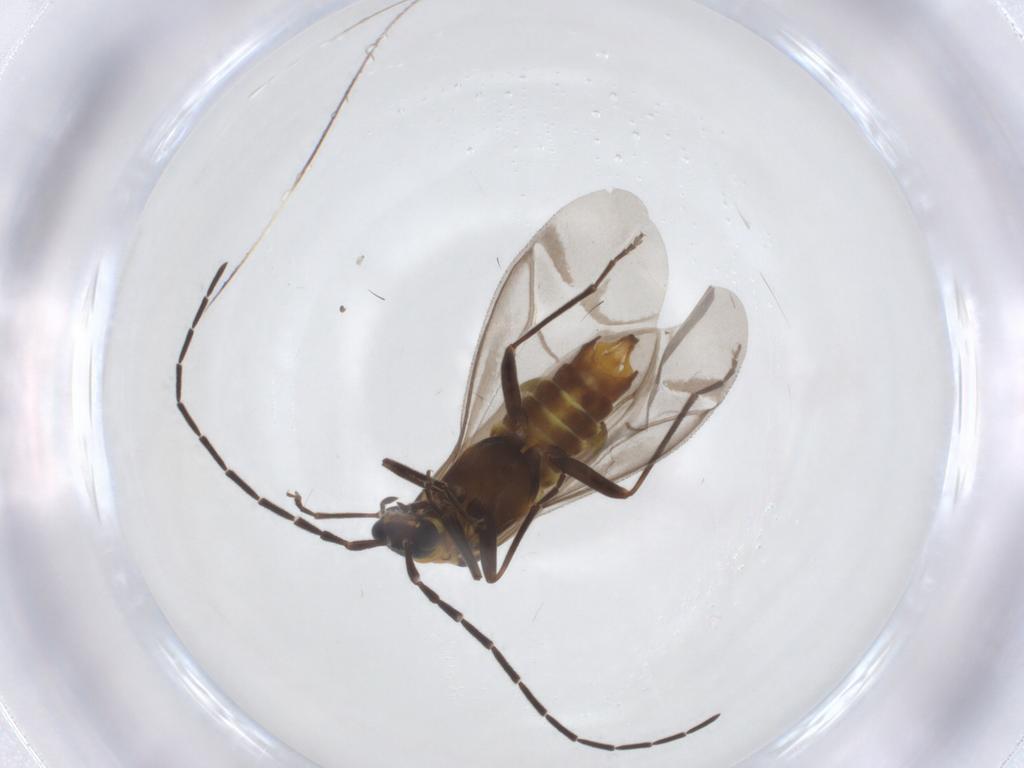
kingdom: Animalia
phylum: Arthropoda
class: Insecta
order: Coleoptera
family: Cantharidae
